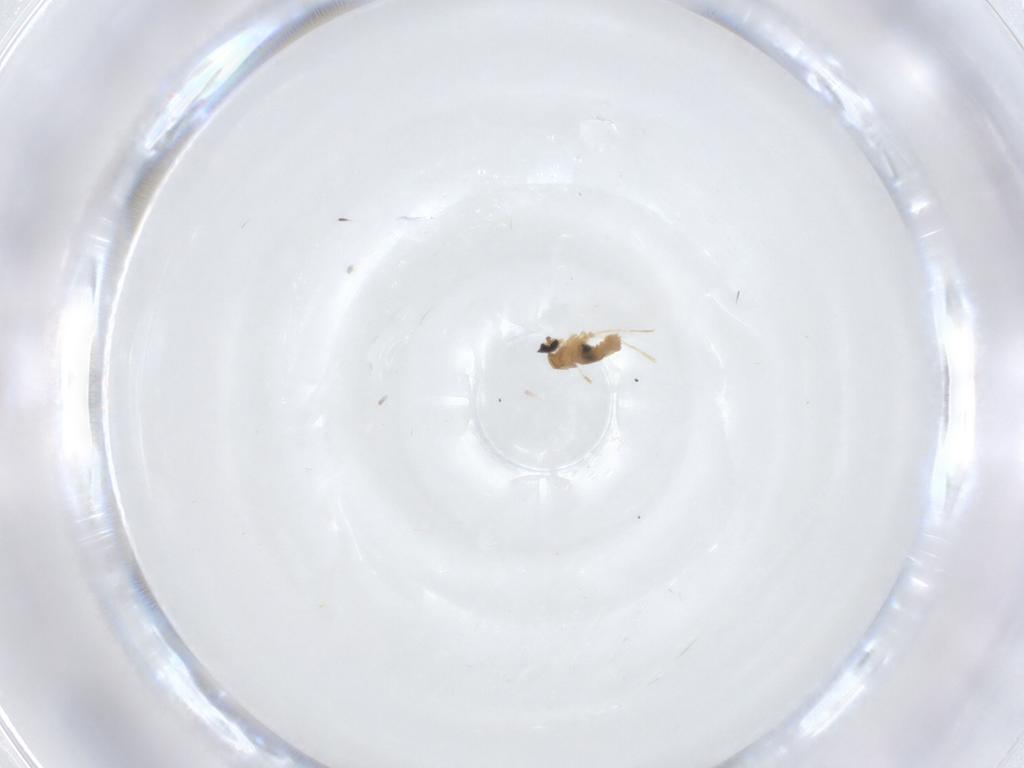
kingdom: Animalia
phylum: Arthropoda
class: Insecta
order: Diptera
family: Cecidomyiidae
